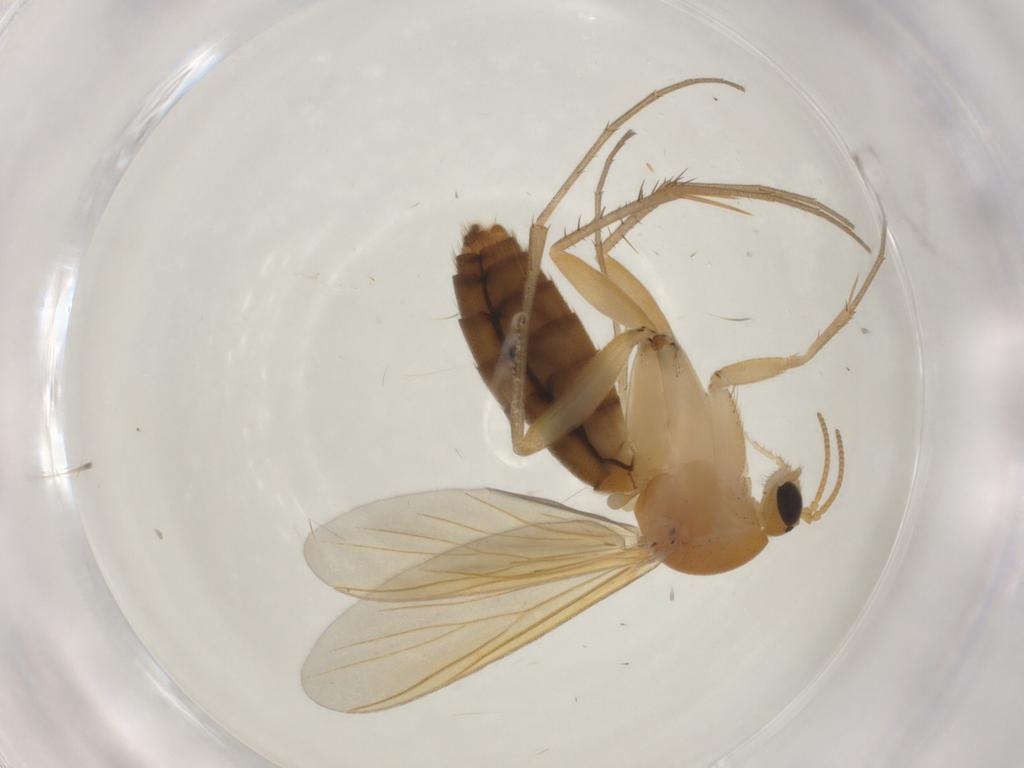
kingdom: Animalia
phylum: Arthropoda
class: Insecta
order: Diptera
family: Mycetophilidae
